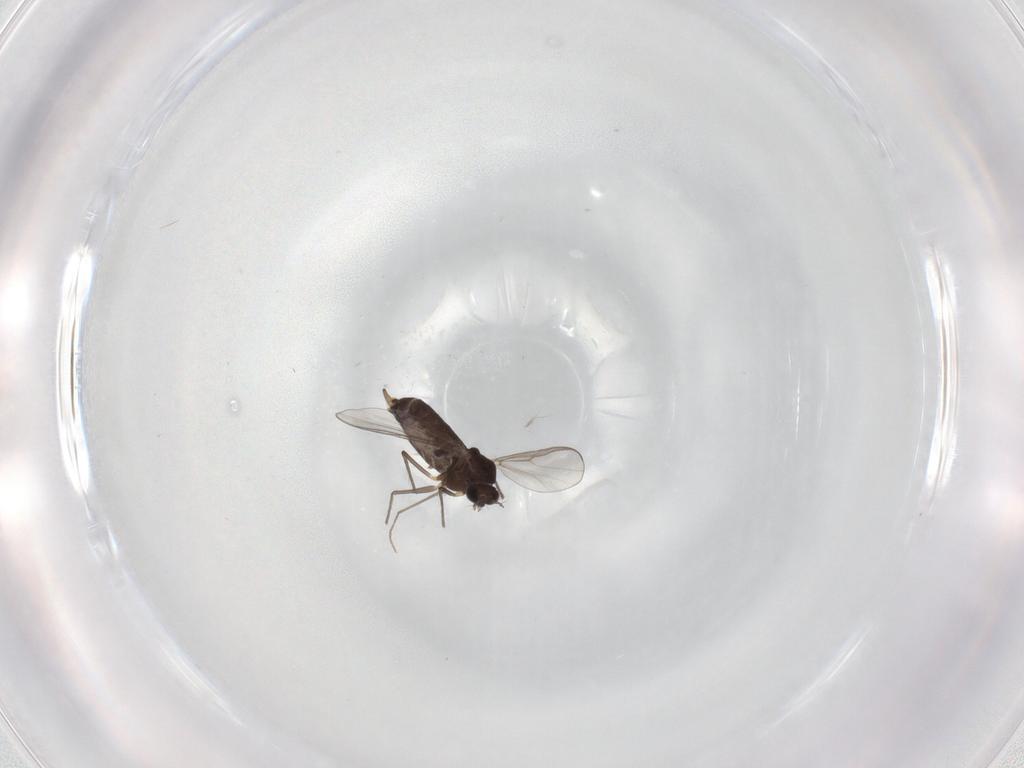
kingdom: Animalia
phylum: Arthropoda
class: Insecta
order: Diptera
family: Chironomidae
